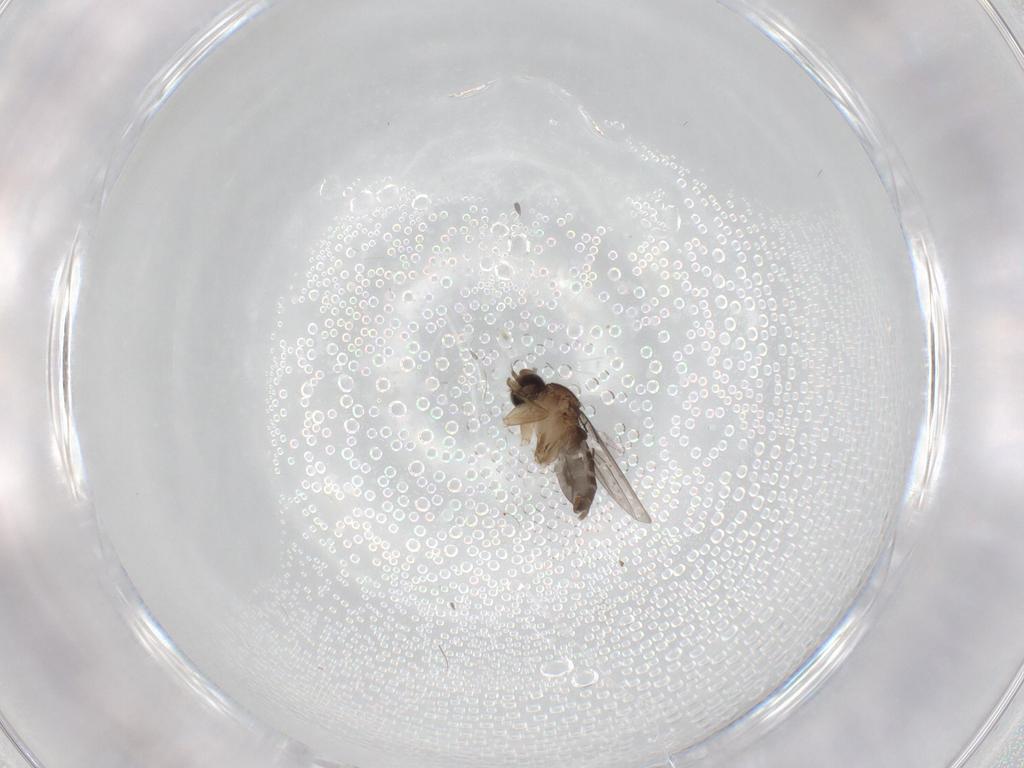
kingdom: Animalia
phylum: Arthropoda
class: Insecta
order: Diptera
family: Phoridae
